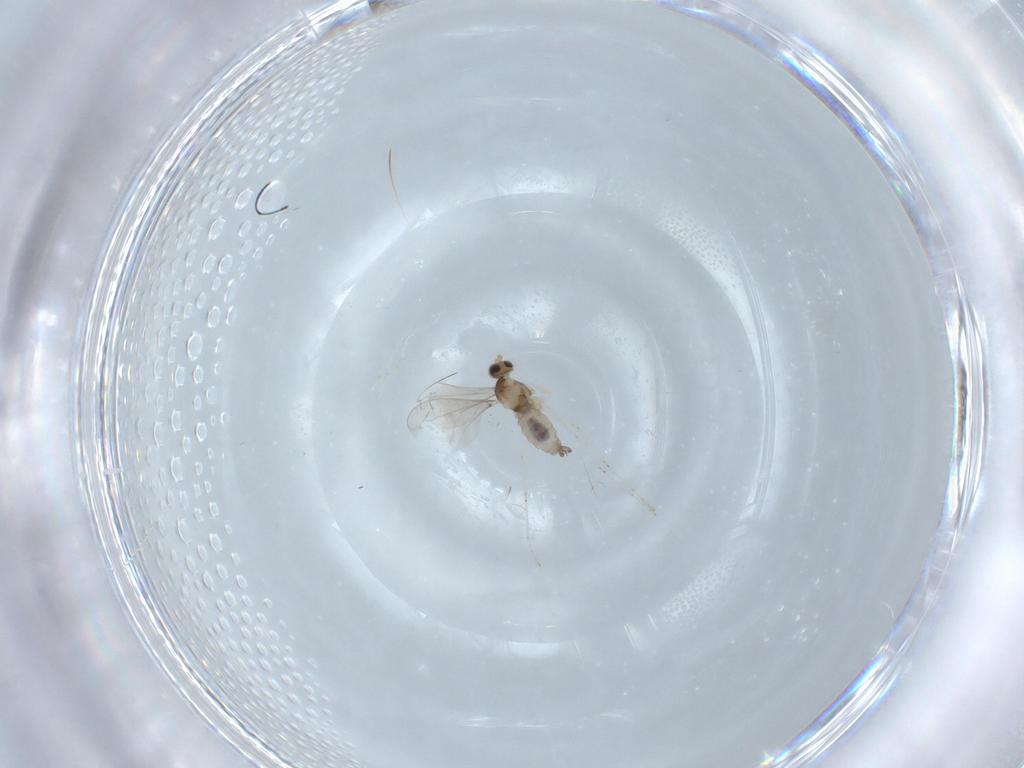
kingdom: Animalia
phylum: Arthropoda
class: Insecta
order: Diptera
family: Cecidomyiidae
